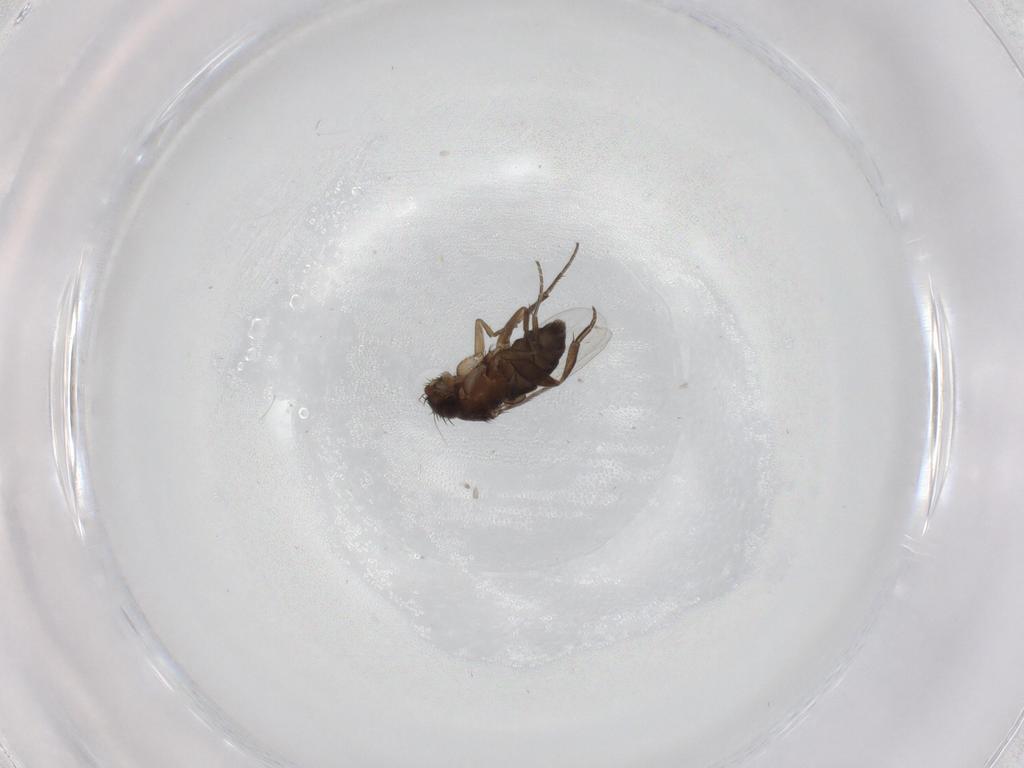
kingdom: Animalia
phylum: Arthropoda
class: Insecta
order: Diptera
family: Phoridae
